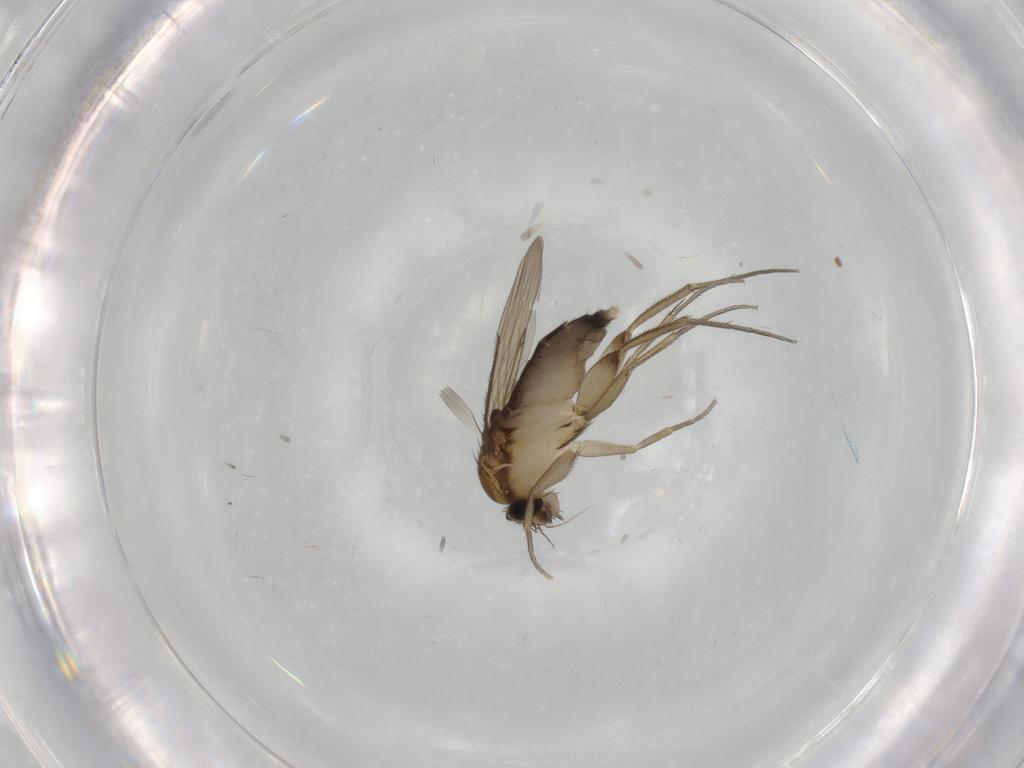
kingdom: Animalia
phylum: Arthropoda
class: Insecta
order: Diptera
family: Phoridae
